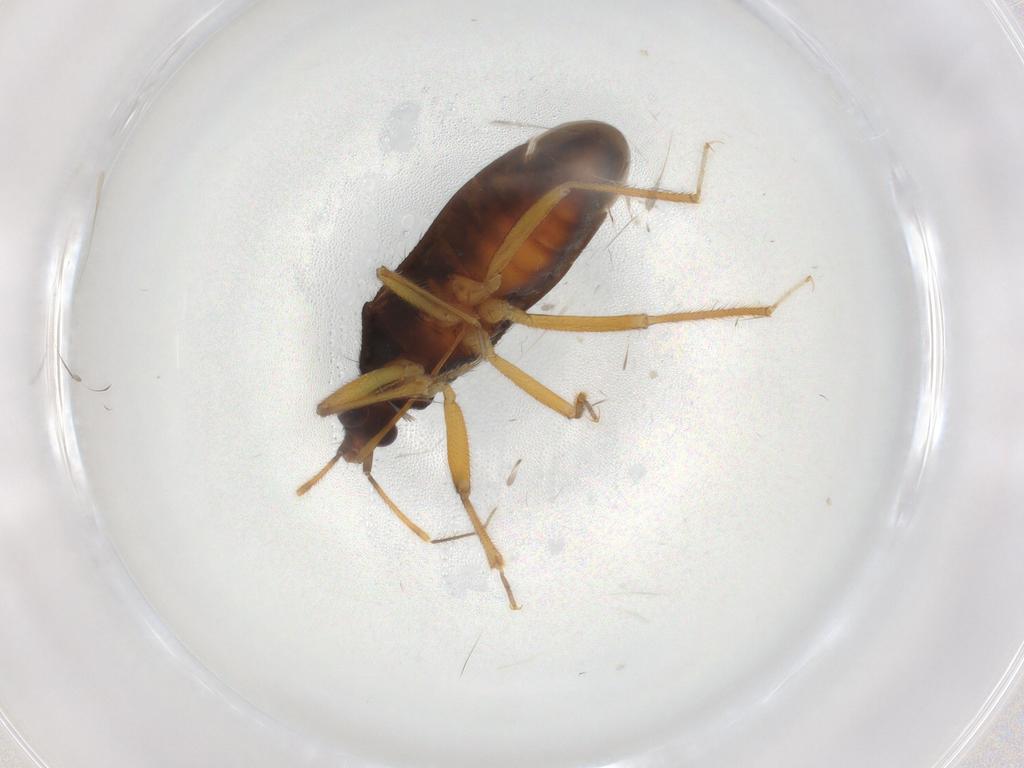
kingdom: Animalia
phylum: Arthropoda
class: Insecta
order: Hemiptera
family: Anthocoridae
